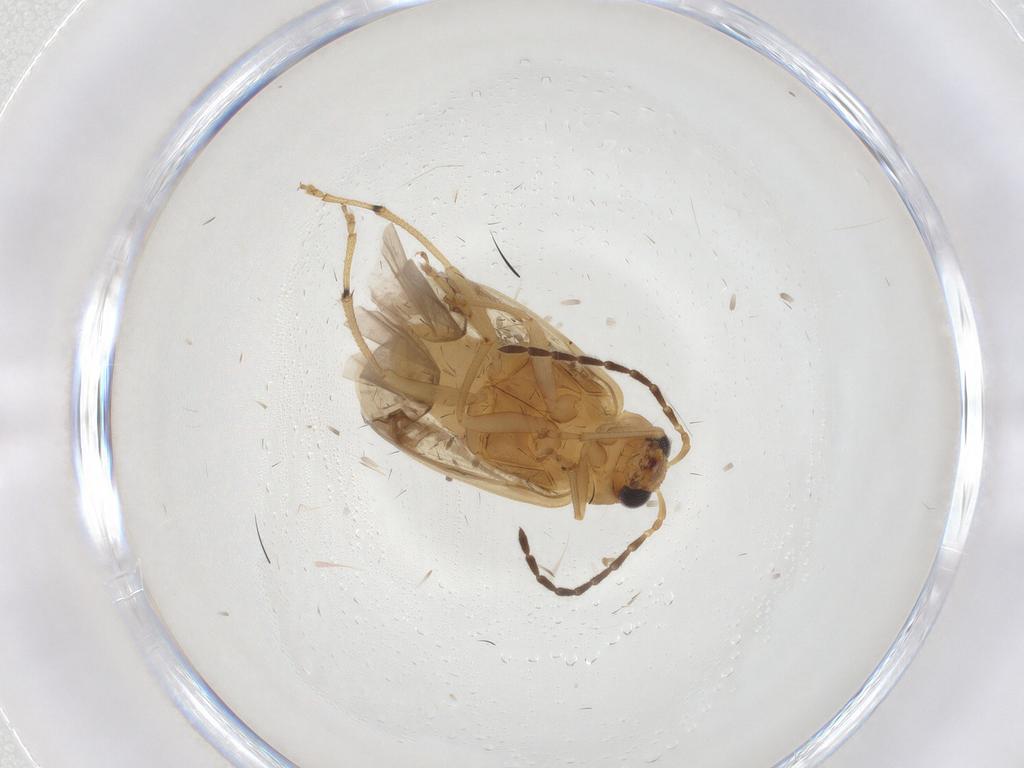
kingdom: Animalia
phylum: Arthropoda
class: Insecta
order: Coleoptera
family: Chrysomelidae
